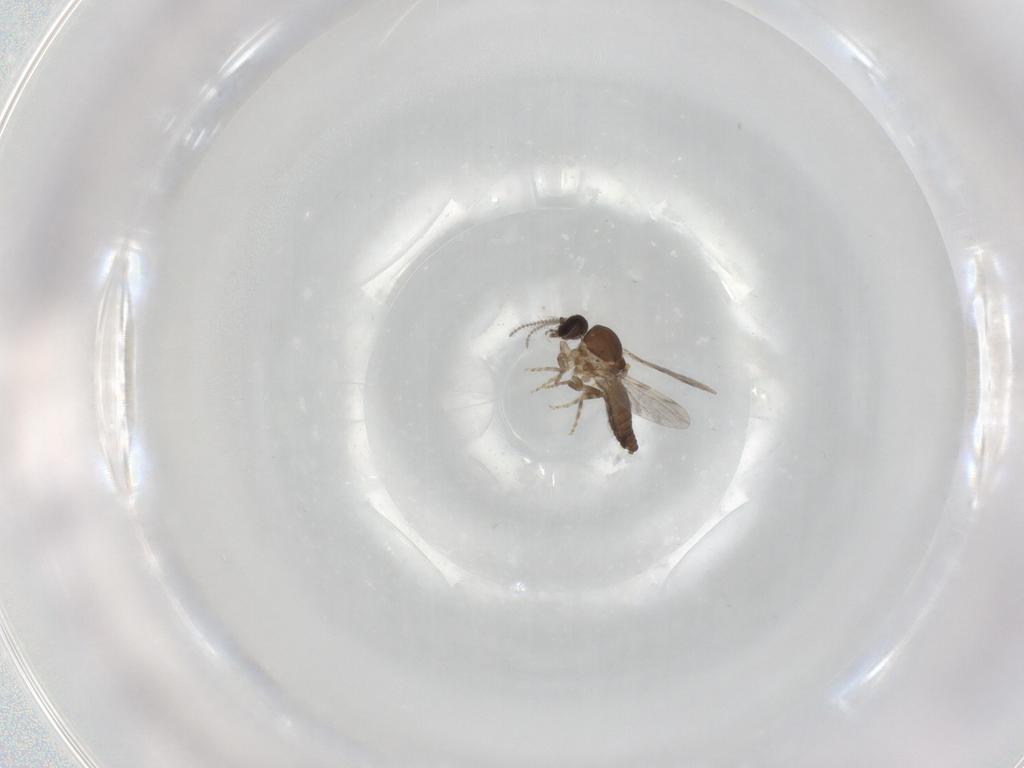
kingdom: Animalia
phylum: Arthropoda
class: Insecta
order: Diptera
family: Ceratopogonidae
